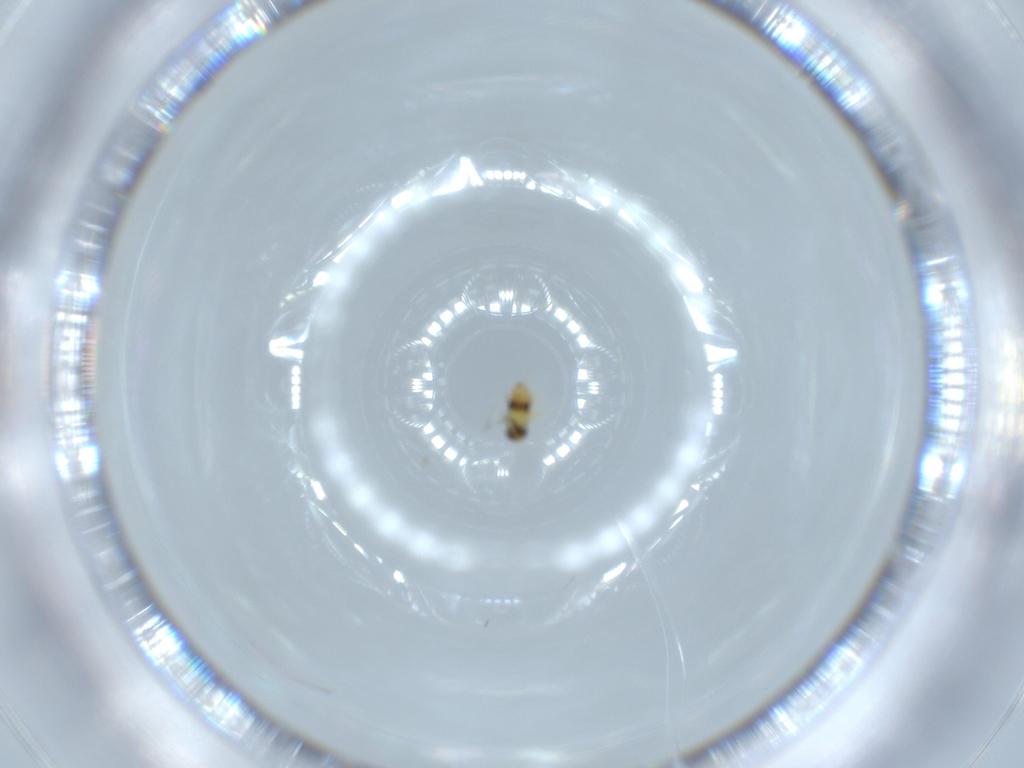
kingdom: Animalia
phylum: Arthropoda
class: Insecta
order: Hymenoptera
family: Signiphoridae
